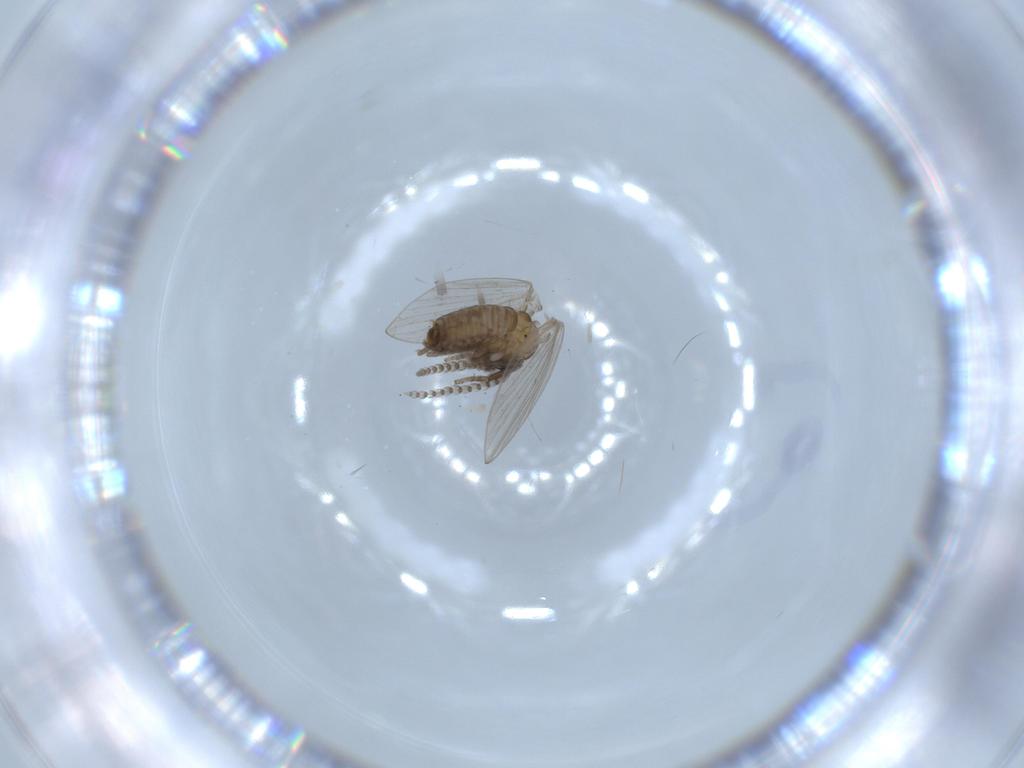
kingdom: Animalia
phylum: Arthropoda
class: Insecta
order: Diptera
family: Psychodidae
